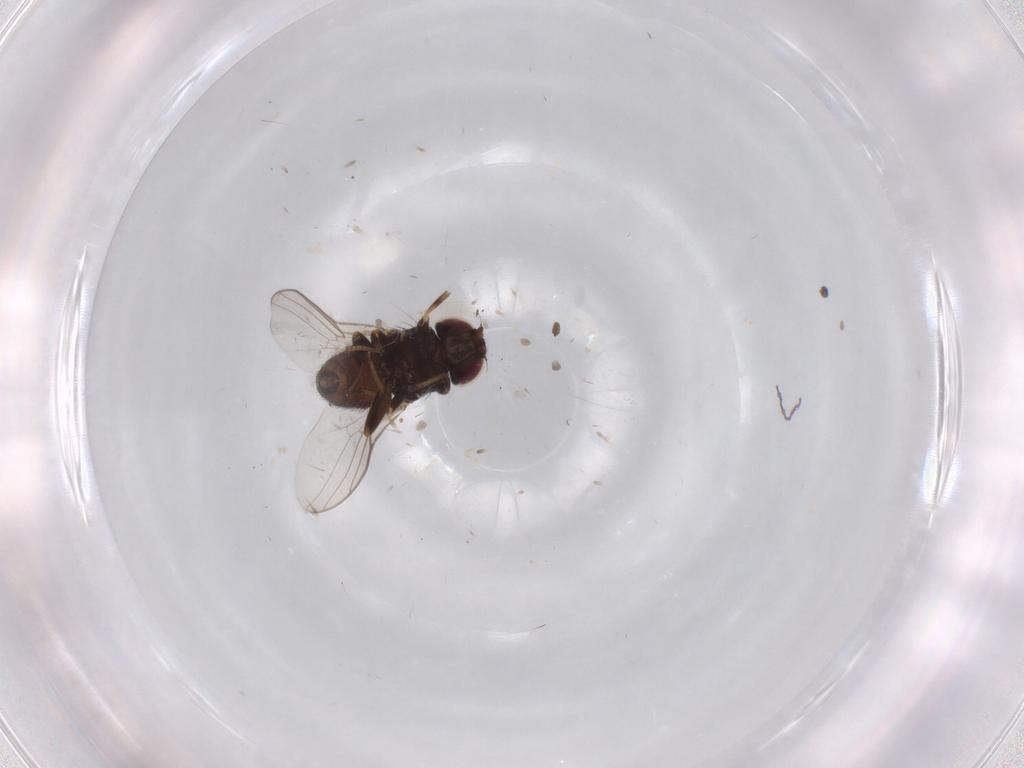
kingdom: Animalia
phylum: Arthropoda
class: Insecta
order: Diptera
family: Chloropidae
